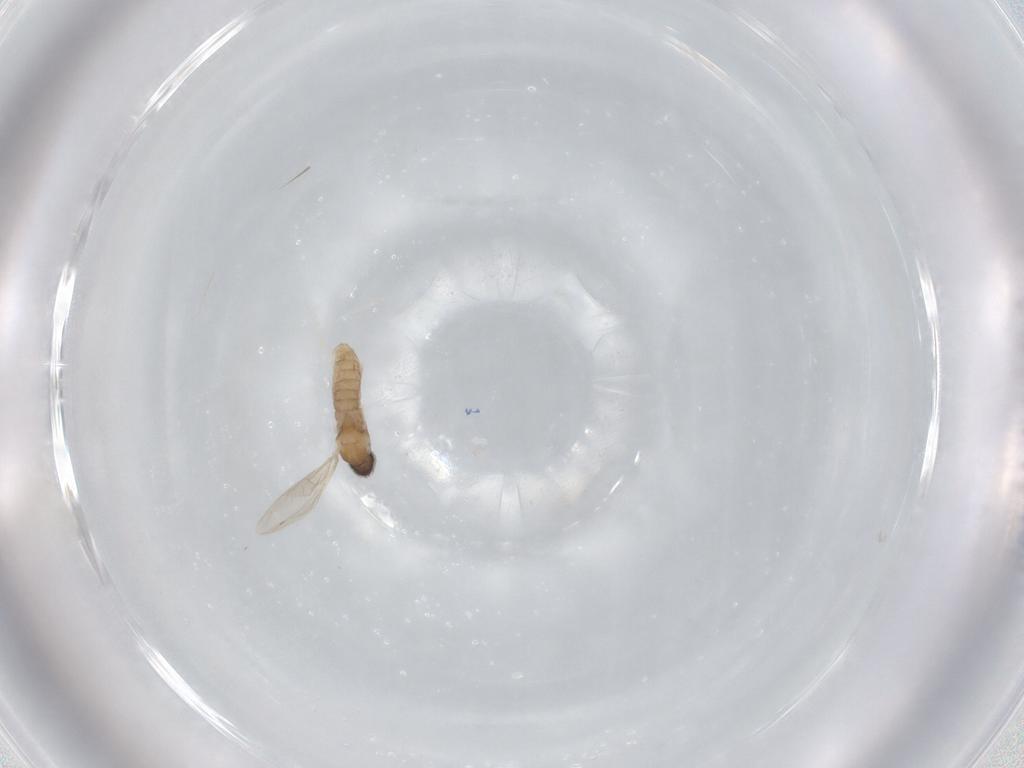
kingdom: Animalia
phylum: Arthropoda
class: Insecta
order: Diptera
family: Cecidomyiidae
